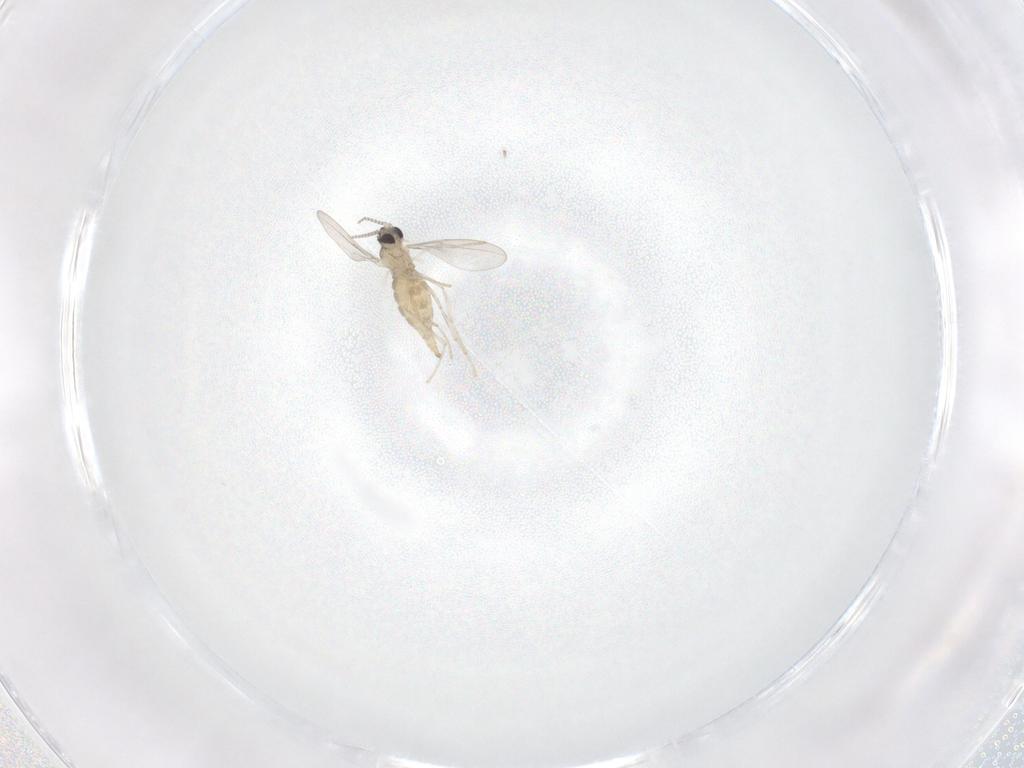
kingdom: Animalia
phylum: Arthropoda
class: Insecta
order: Diptera
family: Cecidomyiidae
